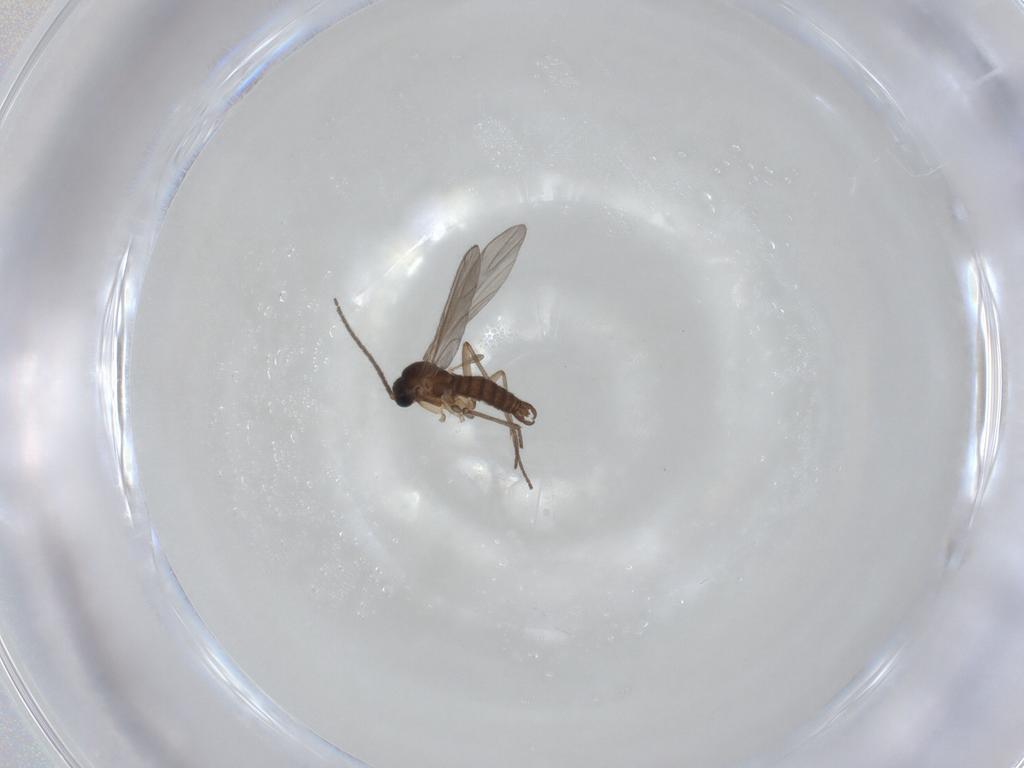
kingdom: Animalia
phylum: Arthropoda
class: Insecta
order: Diptera
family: Sciaridae
